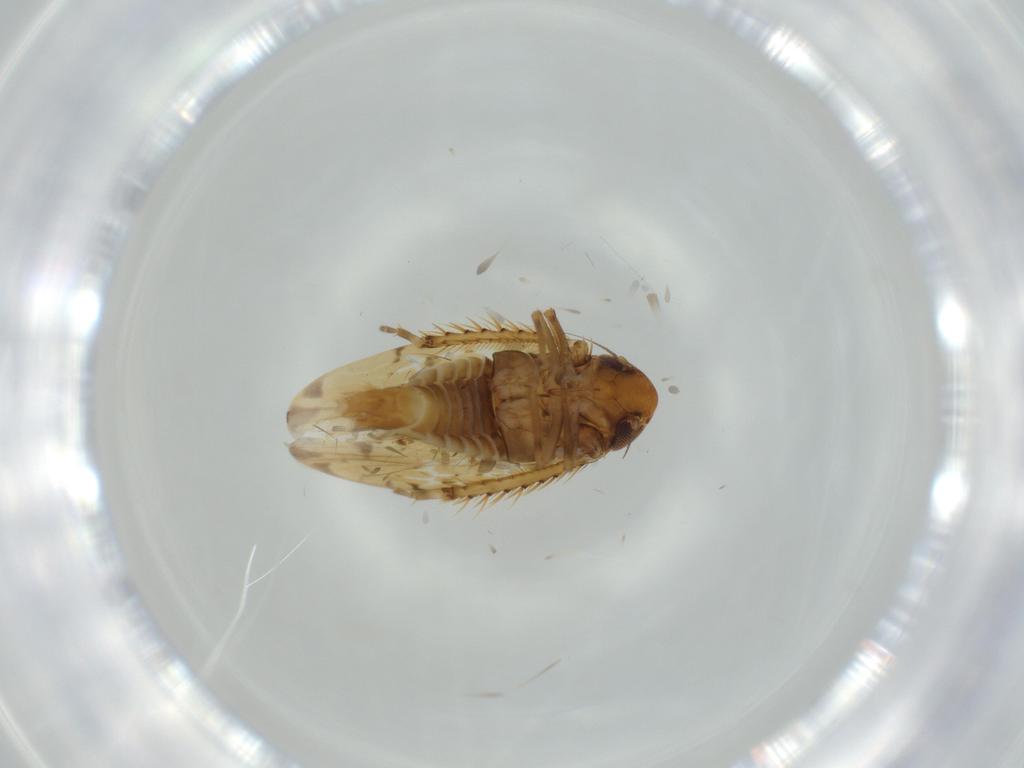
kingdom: Animalia
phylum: Arthropoda
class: Insecta
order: Hemiptera
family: Cicadellidae
